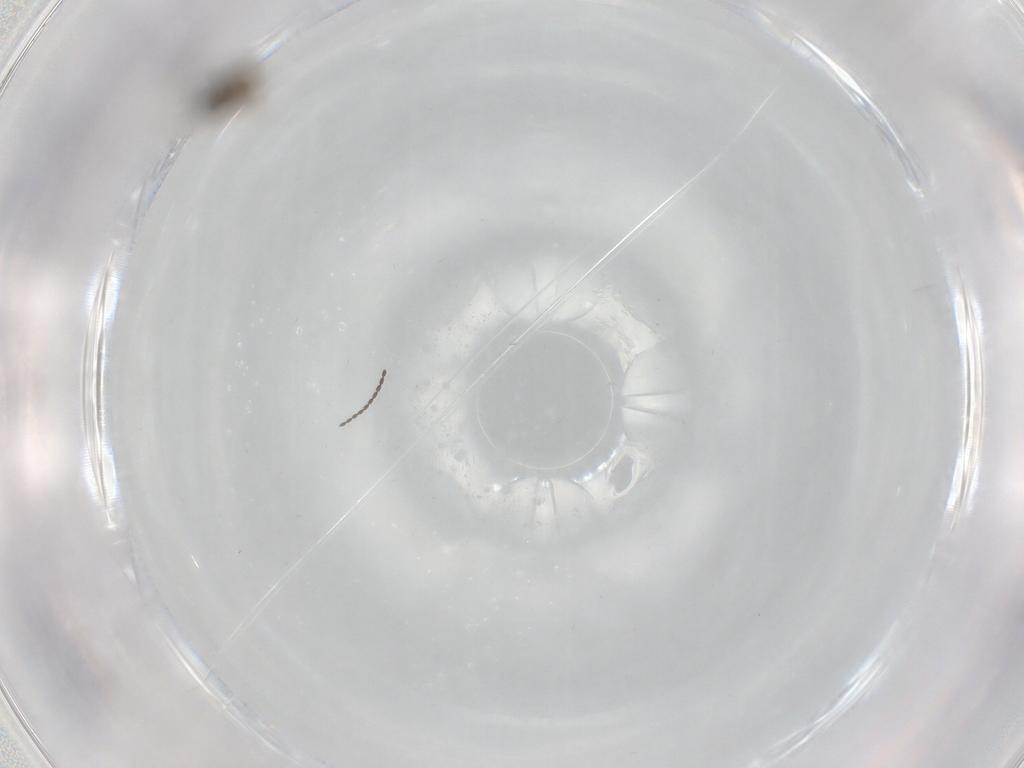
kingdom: Animalia
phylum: Arthropoda
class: Insecta
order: Diptera
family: Cecidomyiidae
